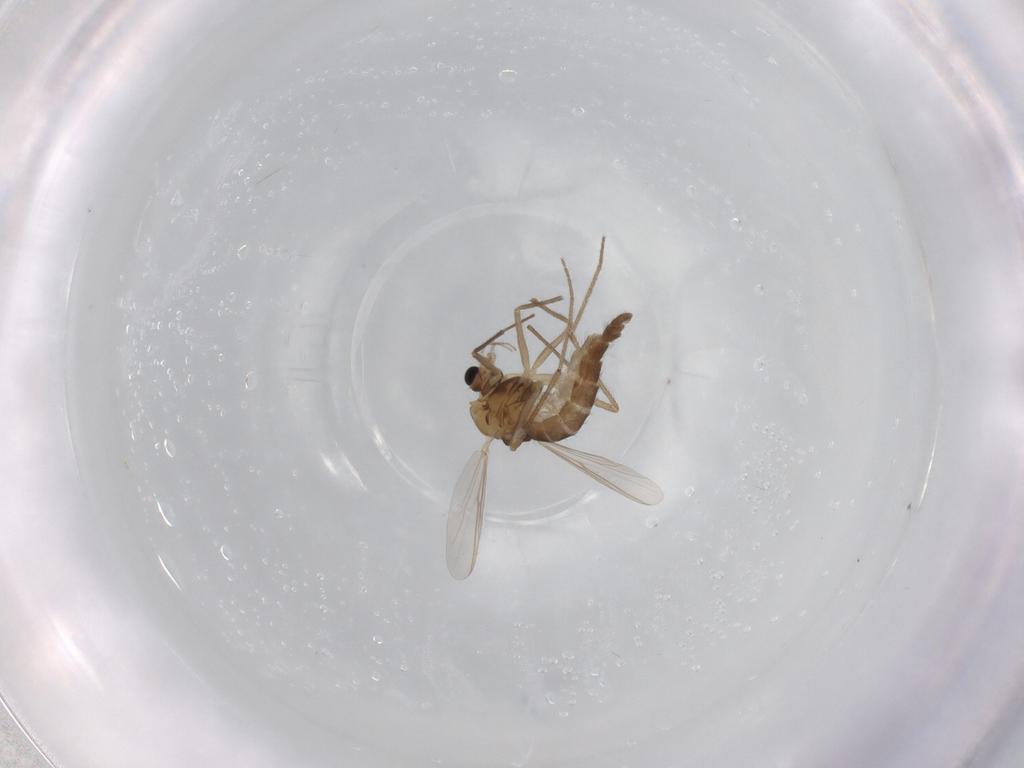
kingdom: Animalia
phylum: Arthropoda
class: Insecta
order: Diptera
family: Chironomidae
